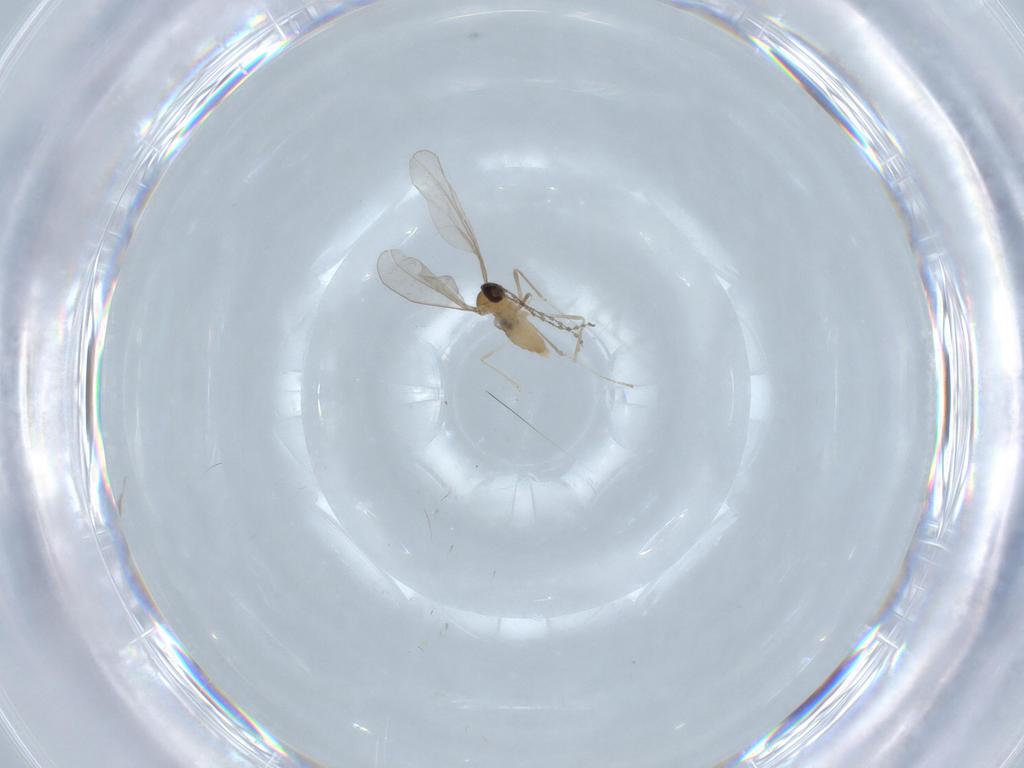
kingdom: Animalia
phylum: Arthropoda
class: Insecta
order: Diptera
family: Cecidomyiidae
